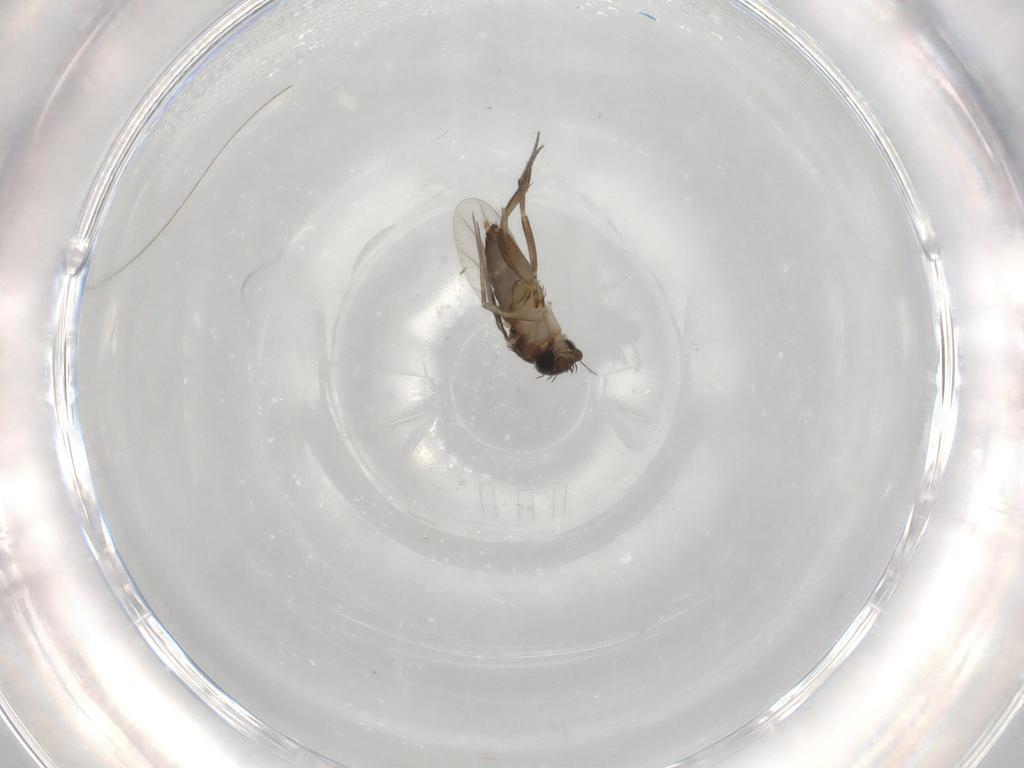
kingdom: Animalia
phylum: Arthropoda
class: Insecta
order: Diptera
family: Phoridae
